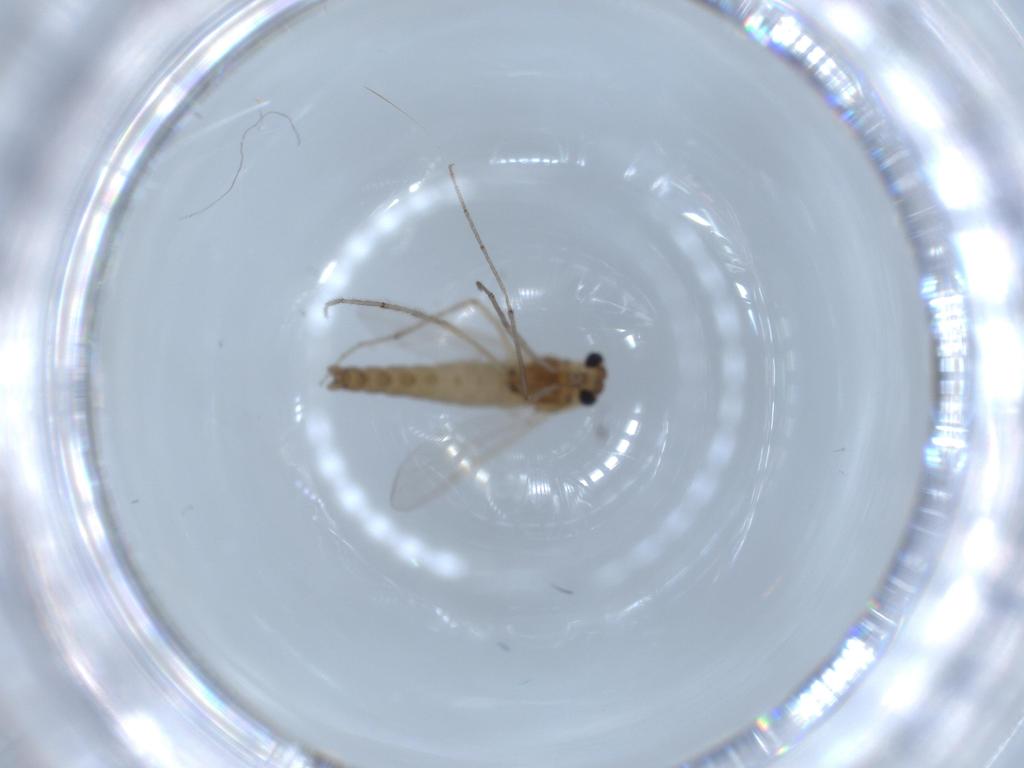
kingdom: Animalia
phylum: Arthropoda
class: Insecta
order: Diptera
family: Chironomidae
